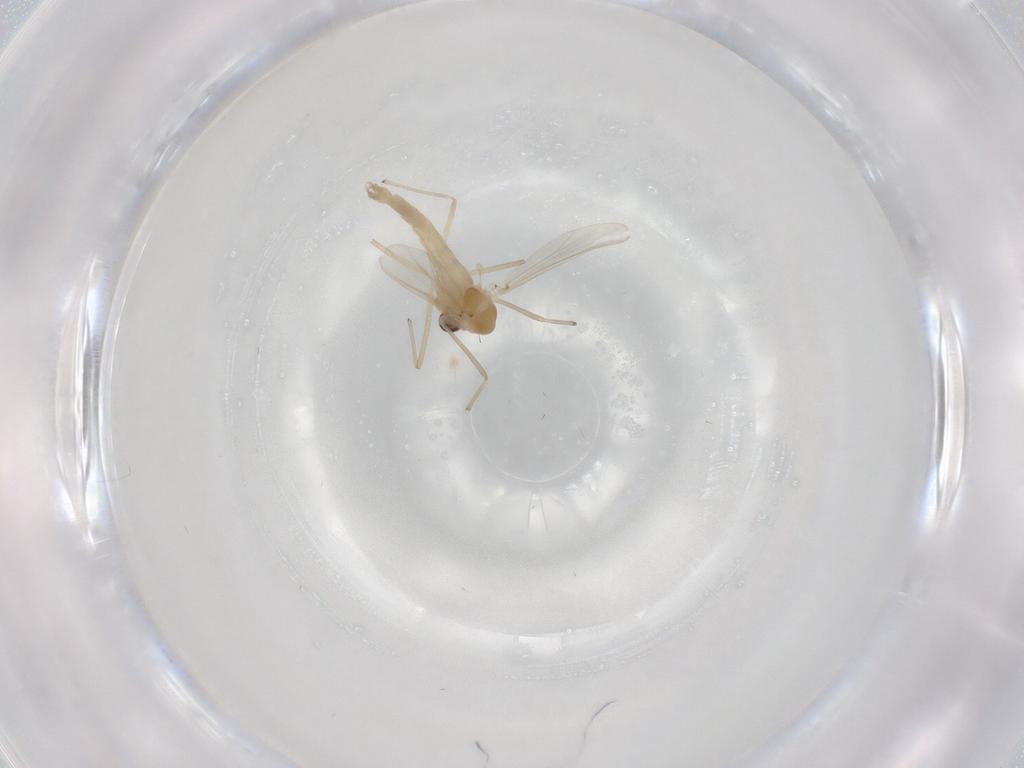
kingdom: Animalia
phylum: Arthropoda
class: Insecta
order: Diptera
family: Chironomidae
